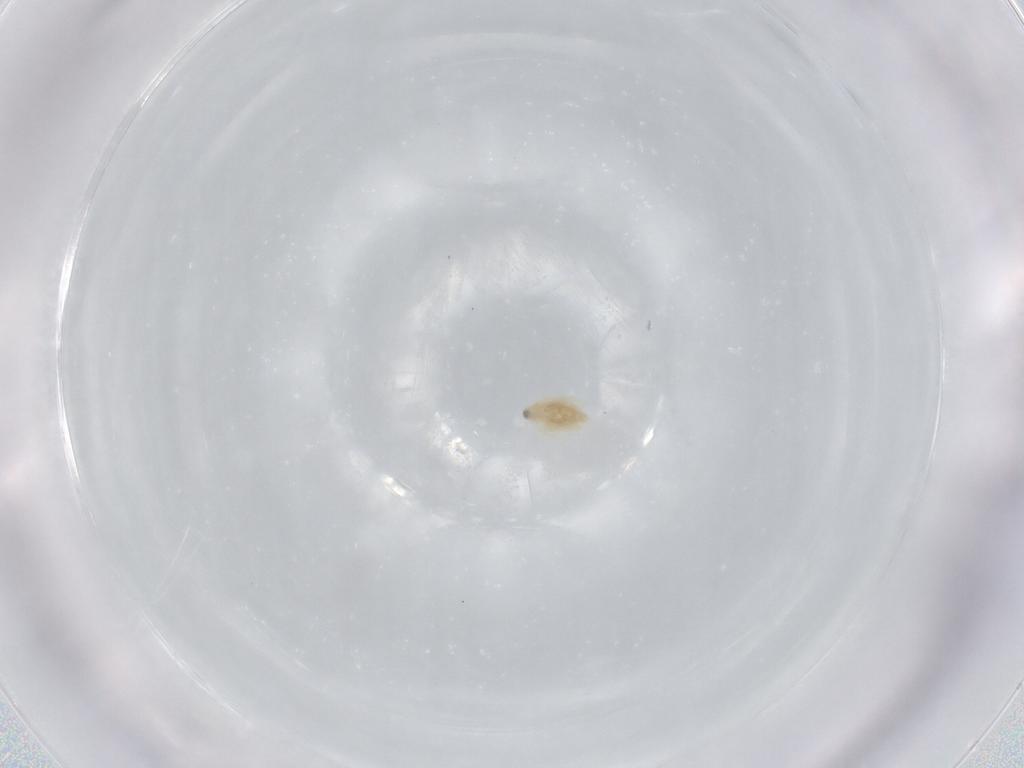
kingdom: Animalia
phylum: Arthropoda
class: Branchiopoda
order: Diplostraca
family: Daphniidae
